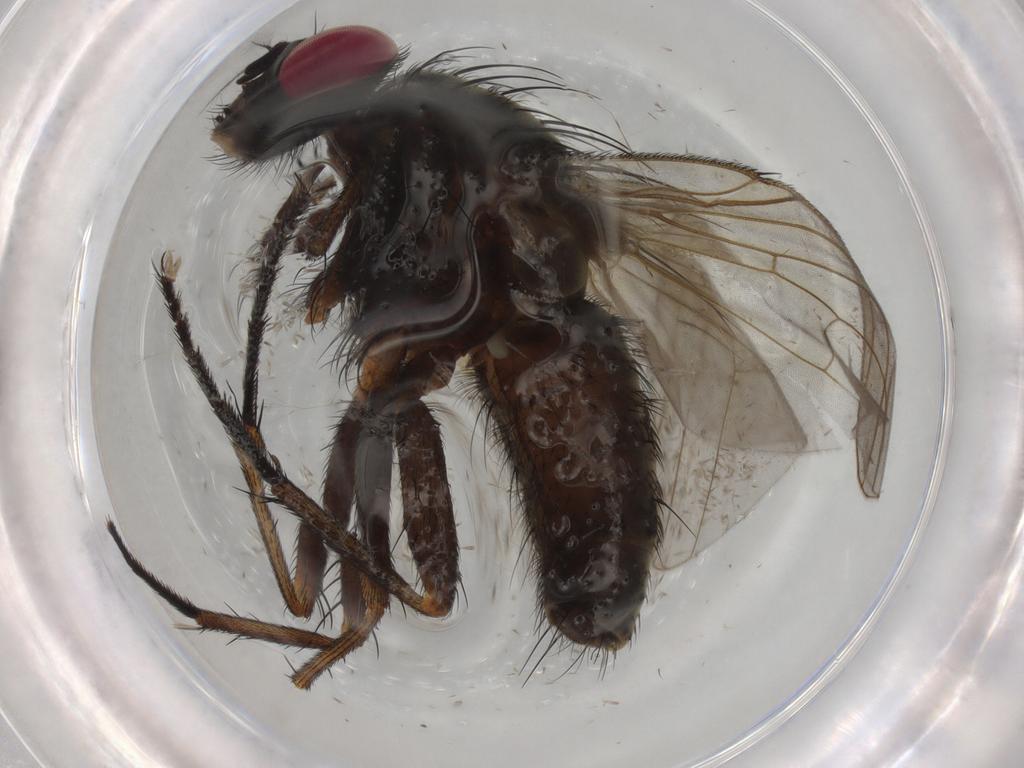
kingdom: Animalia
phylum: Arthropoda
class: Insecta
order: Diptera
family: Muscidae
